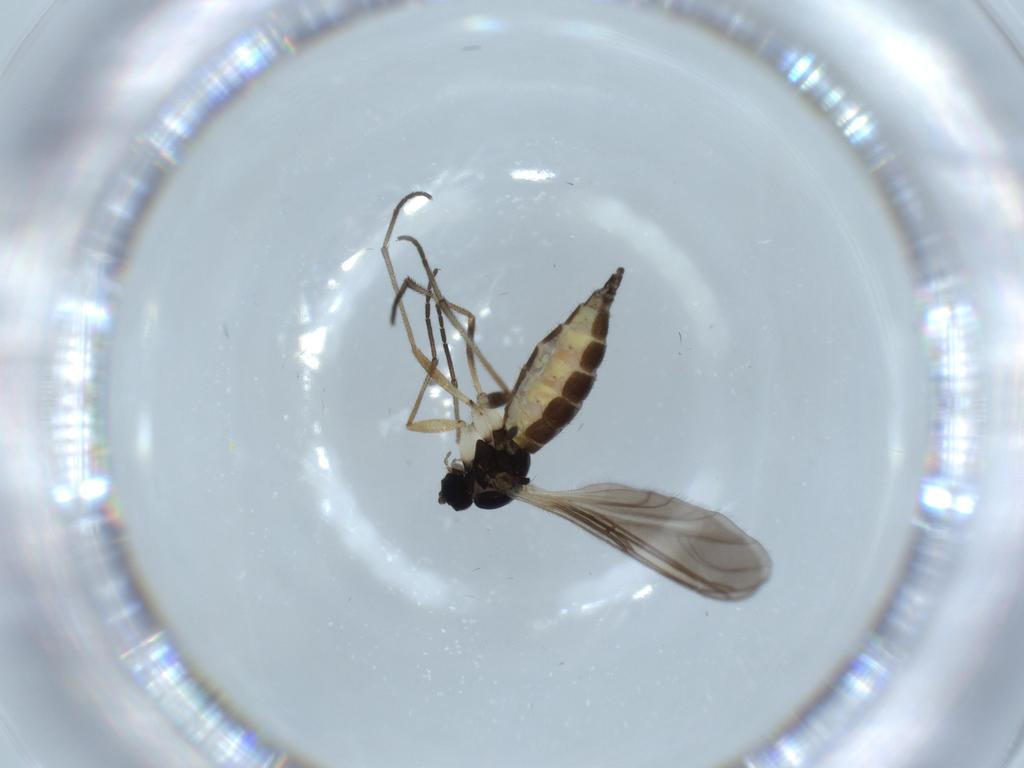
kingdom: Animalia
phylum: Arthropoda
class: Insecta
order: Diptera
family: Sciaridae
